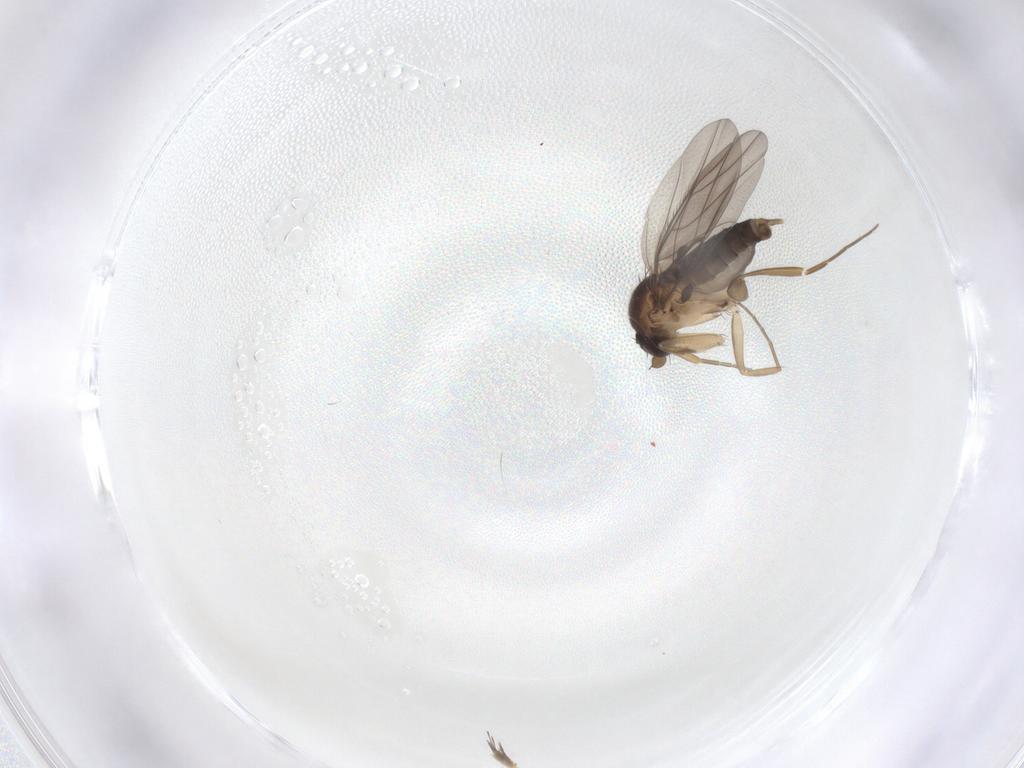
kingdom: Animalia
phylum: Arthropoda
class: Insecta
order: Diptera
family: Phoridae
